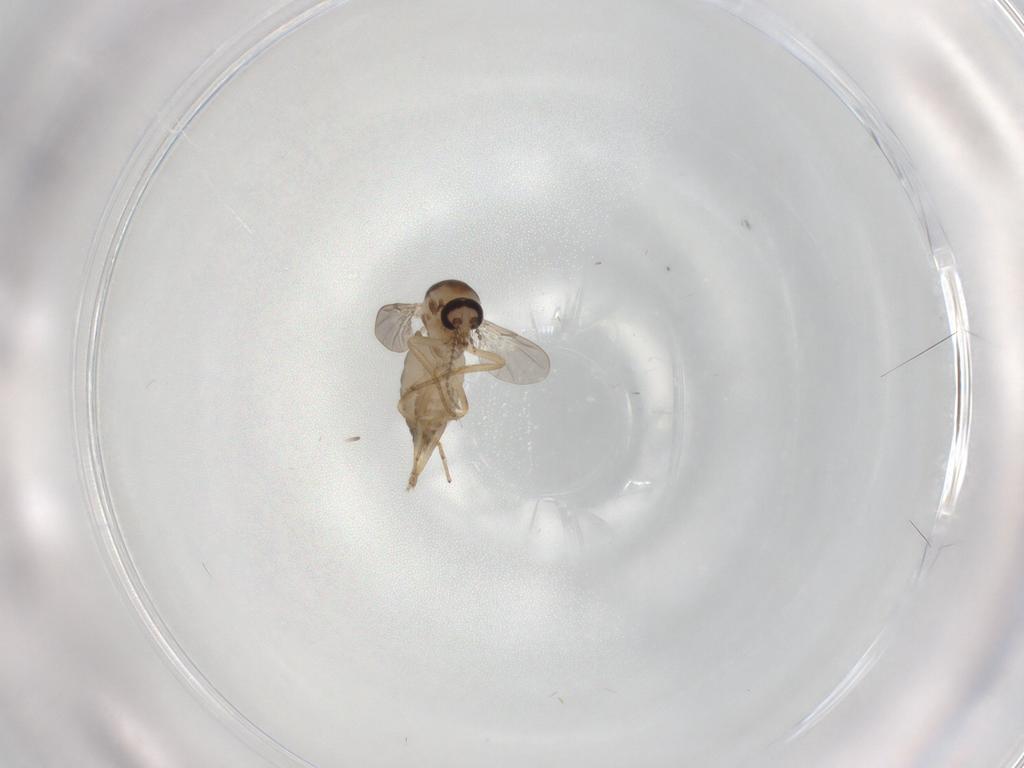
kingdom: Animalia
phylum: Arthropoda
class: Insecta
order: Diptera
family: Ceratopogonidae
